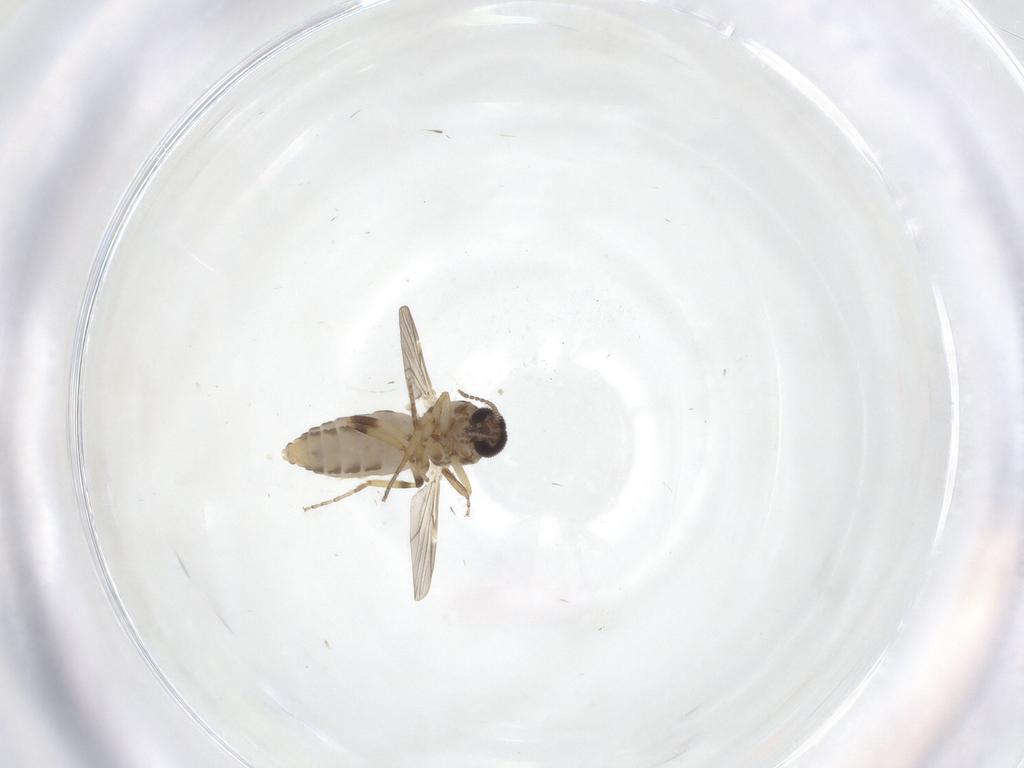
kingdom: Animalia
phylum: Arthropoda
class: Insecta
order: Diptera
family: Ceratopogonidae
